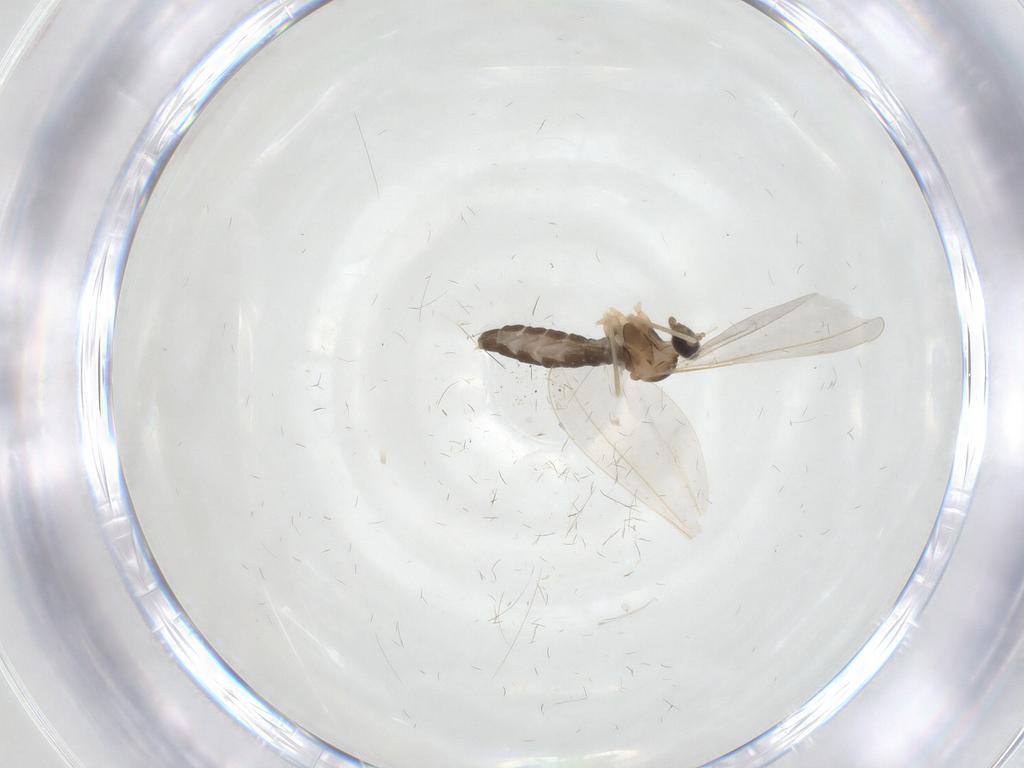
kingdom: Animalia
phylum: Arthropoda
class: Insecta
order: Diptera
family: Cecidomyiidae
